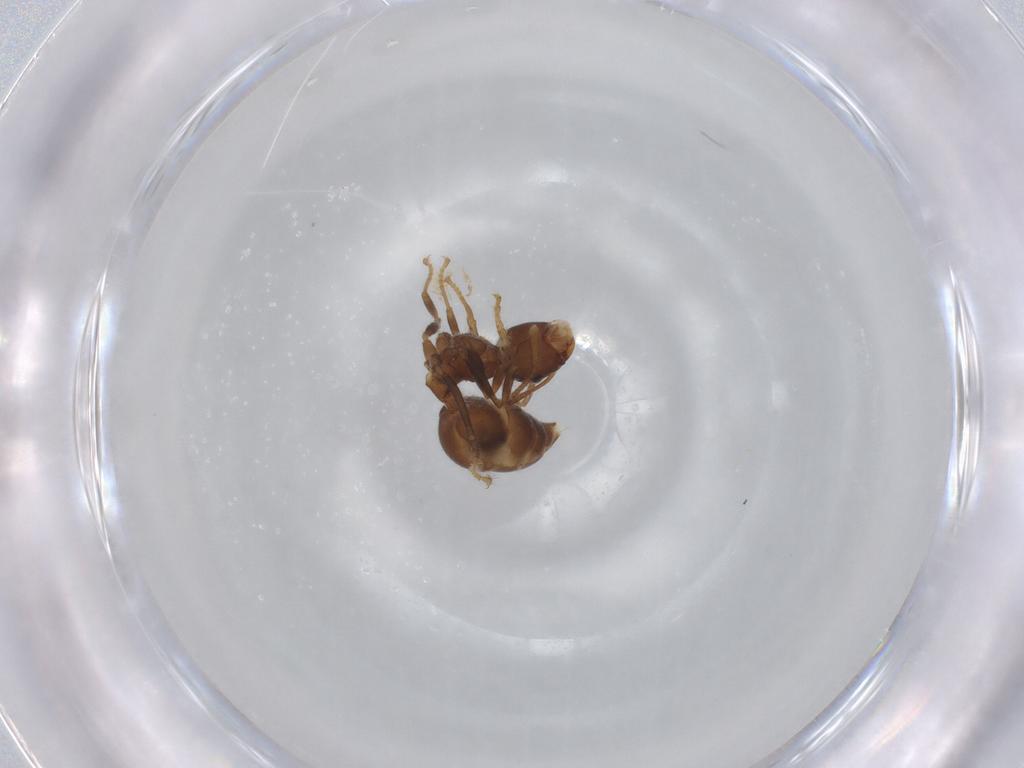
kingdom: Animalia
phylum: Arthropoda
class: Insecta
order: Hymenoptera
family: Formicidae
